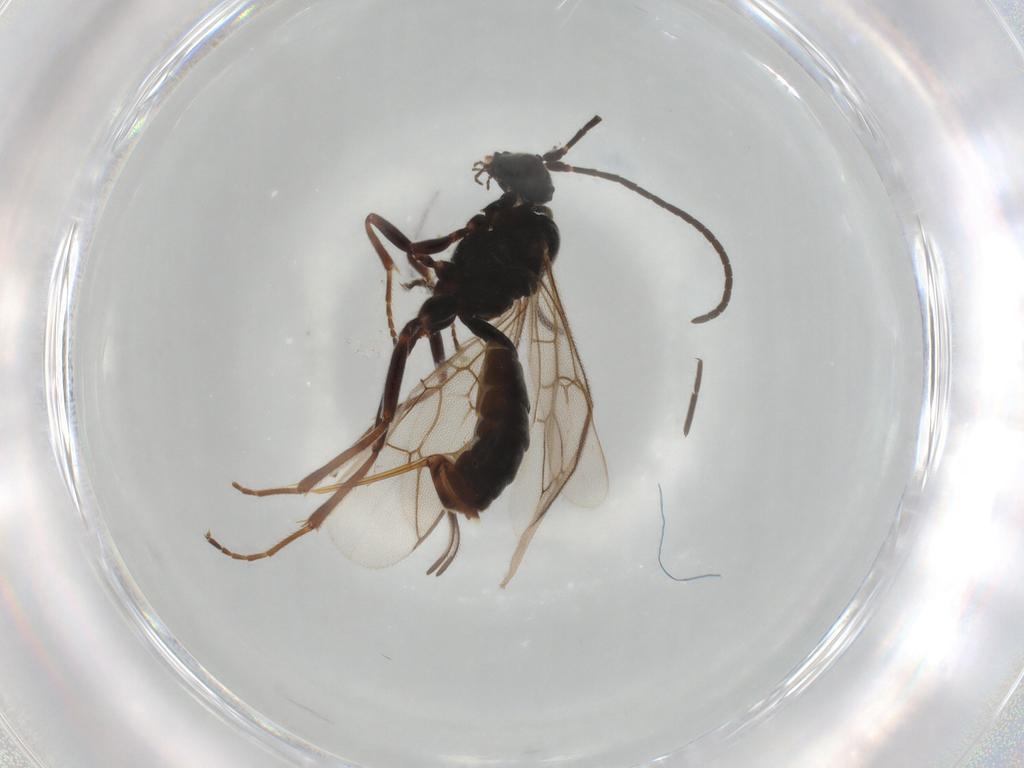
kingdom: Animalia
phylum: Arthropoda
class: Insecta
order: Hymenoptera
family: Ichneumonidae
